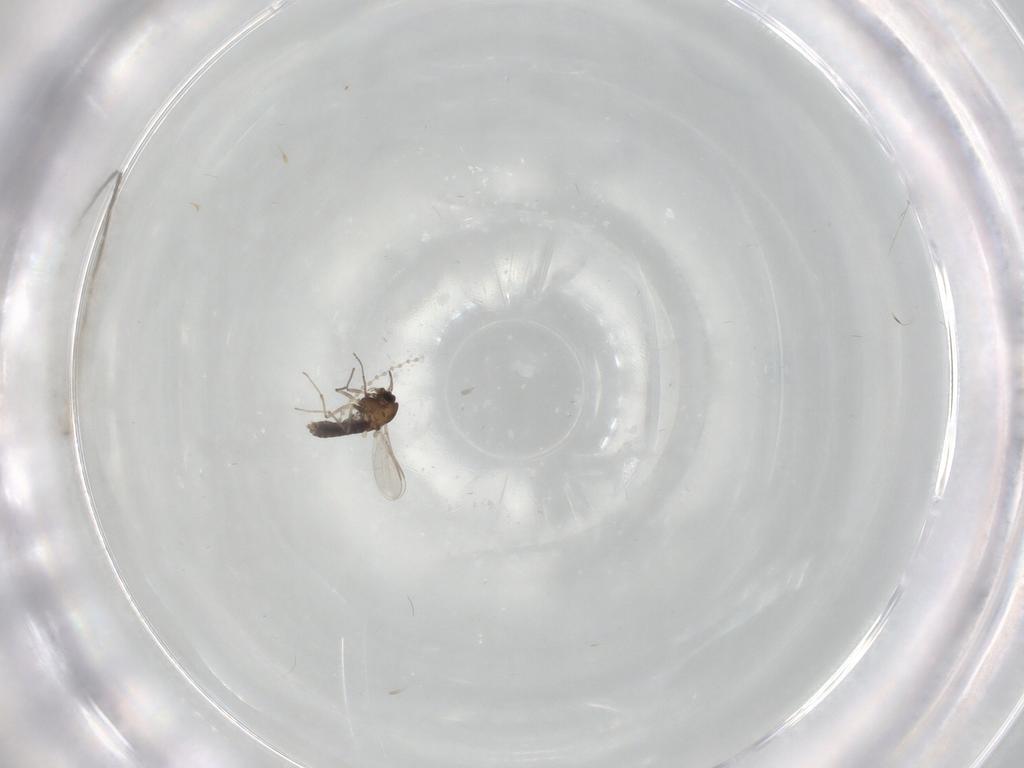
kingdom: Animalia
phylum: Arthropoda
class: Insecta
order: Diptera
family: Chironomidae
